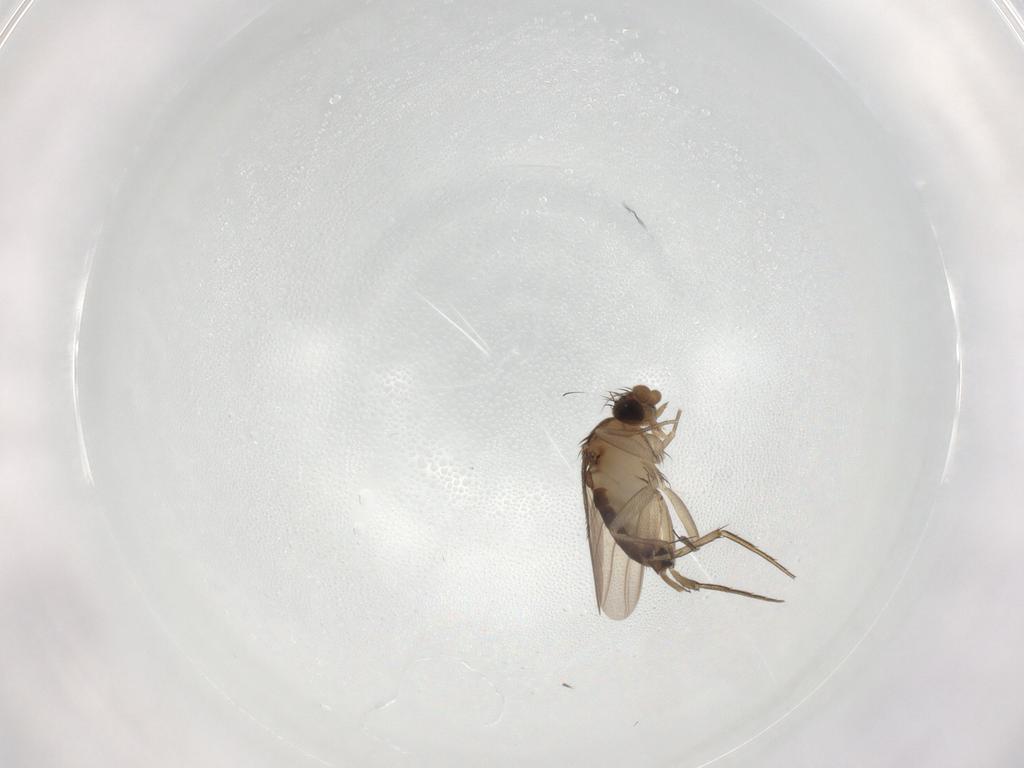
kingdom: Animalia
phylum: Arthropoda
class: Insecta
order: Diptera
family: Phoridae
